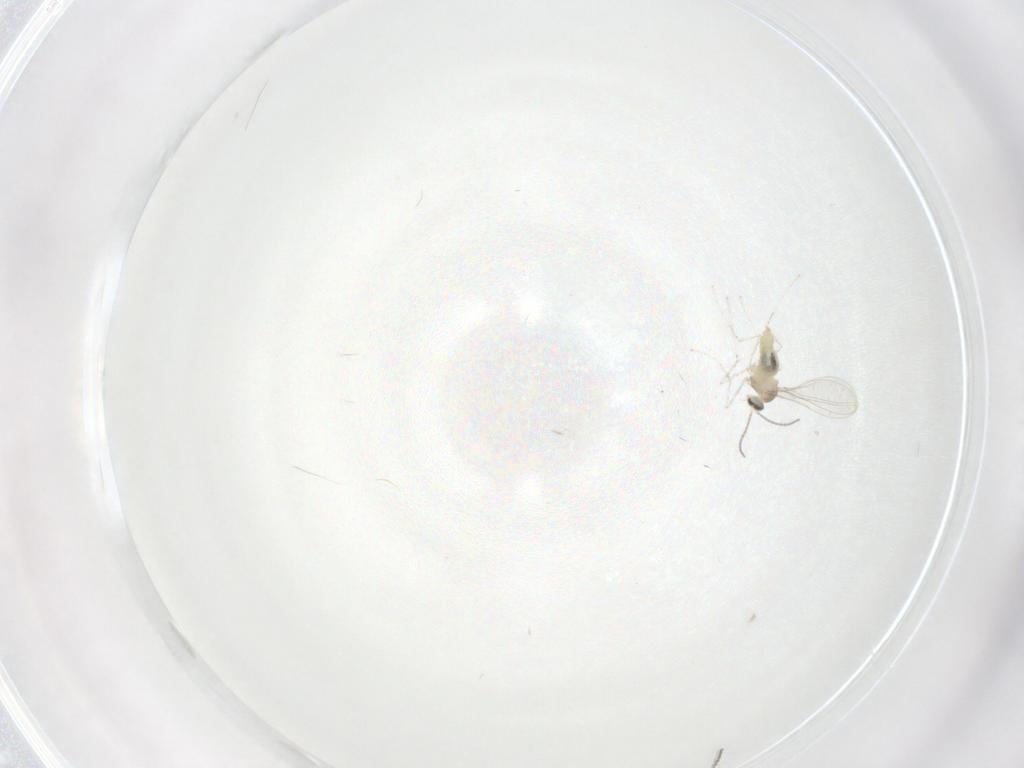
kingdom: Animalia
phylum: Arthropoda
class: Insecta
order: Diptera
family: Cecidomyiidae
